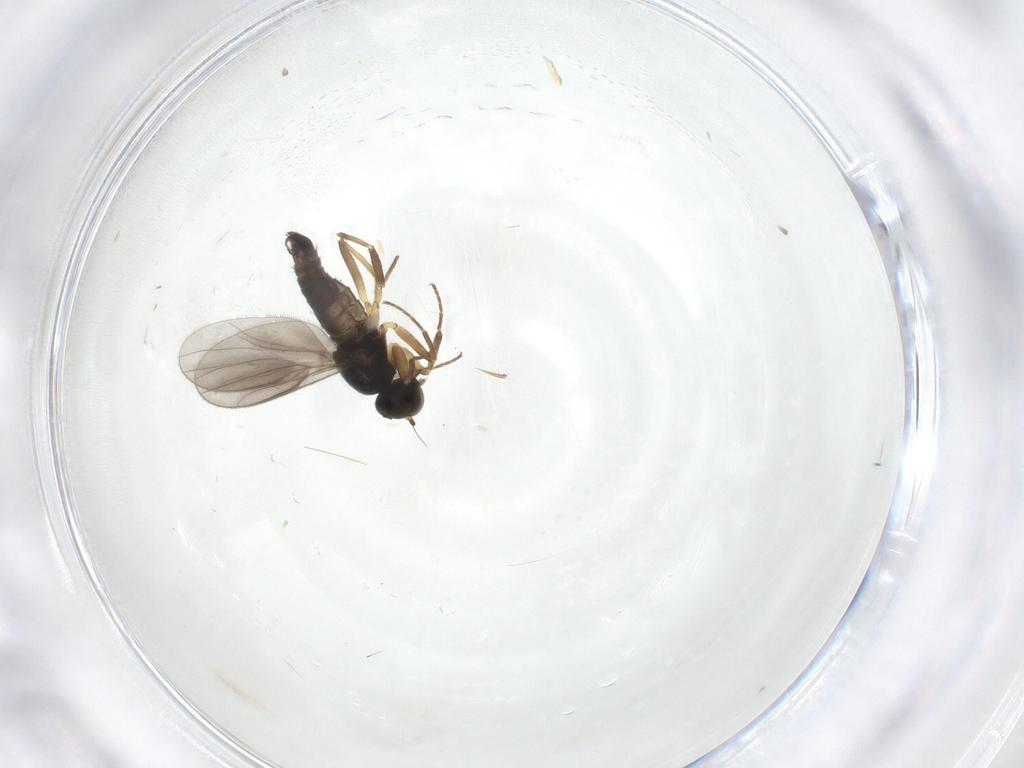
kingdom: Animalia
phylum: Arthropoda
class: Insecta
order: Diptera
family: Hybotidae
